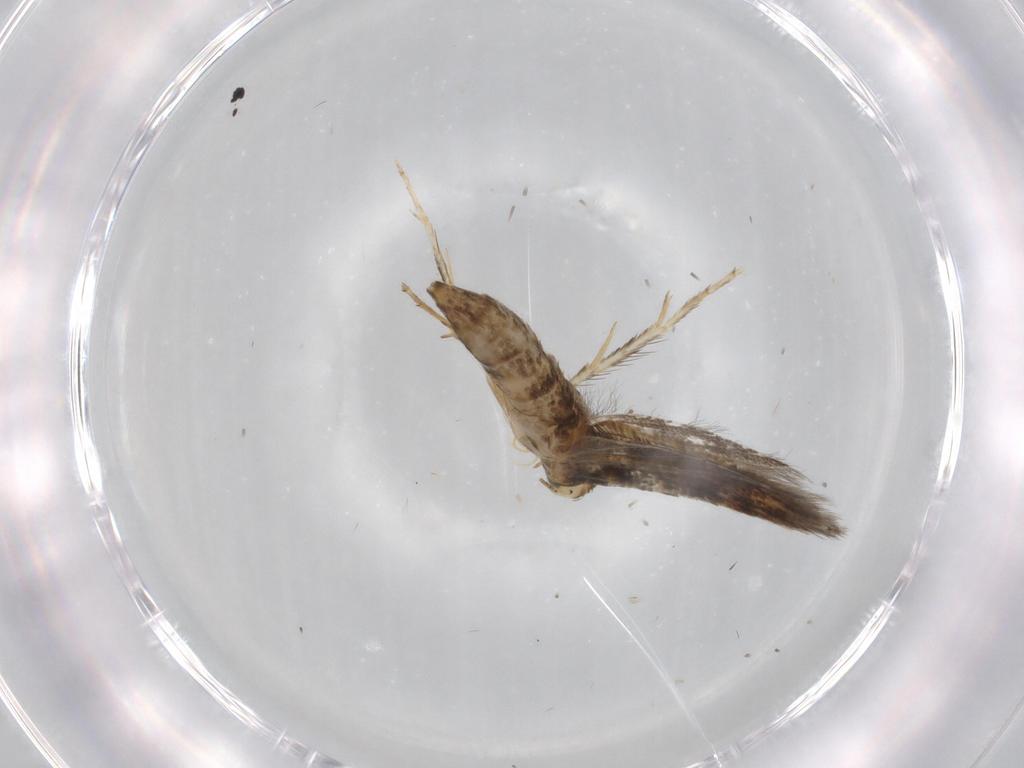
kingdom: Animalia
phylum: Arthropoda
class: Insecta
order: Lepidoptera
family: Heliodinidae
